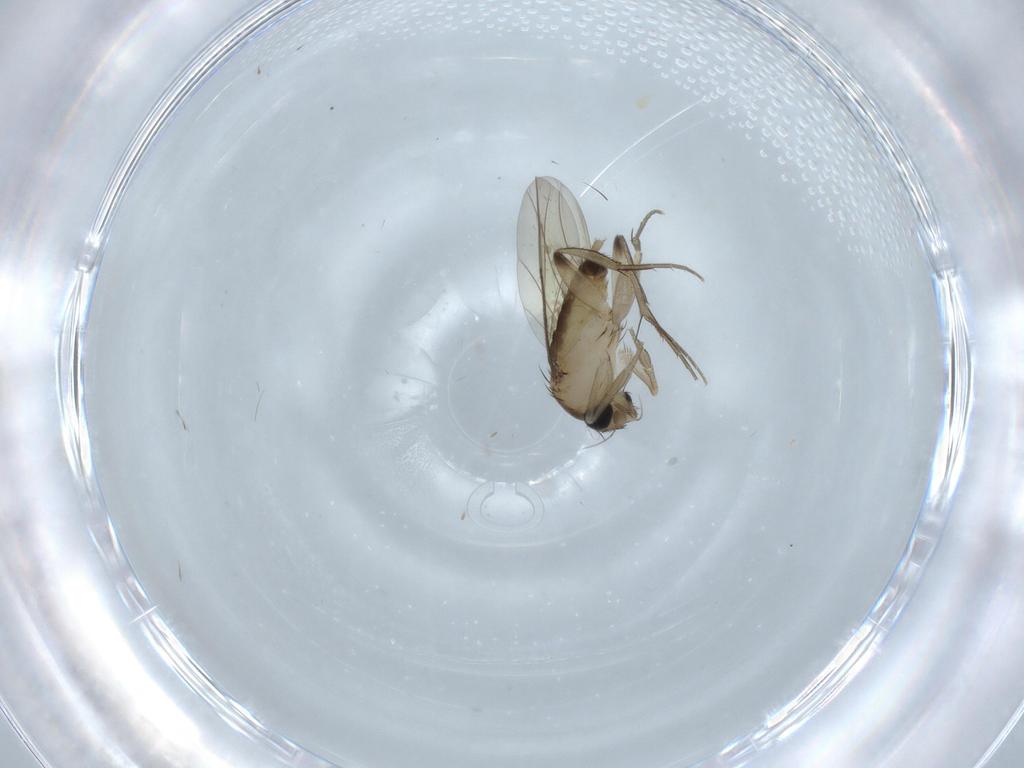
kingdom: Animalia
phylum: Arthropoda
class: Insecta
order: Diptera
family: Phoridae
